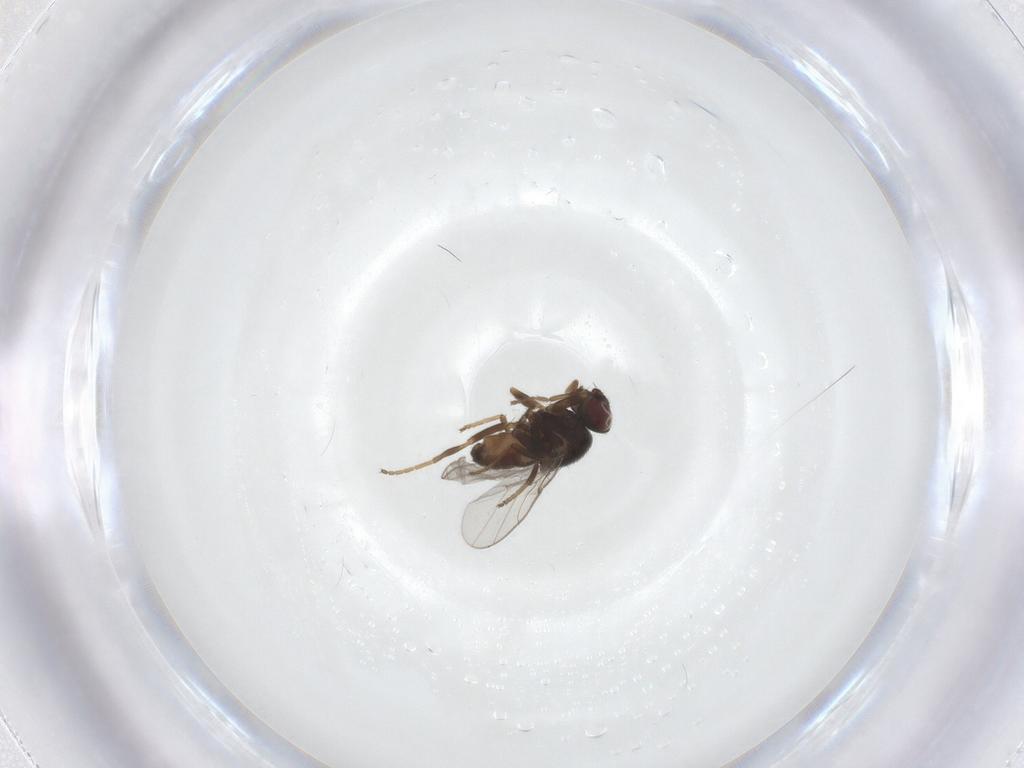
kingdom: Animalia
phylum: Arthropoda
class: Insecta
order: Diptera
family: Chloropidae
